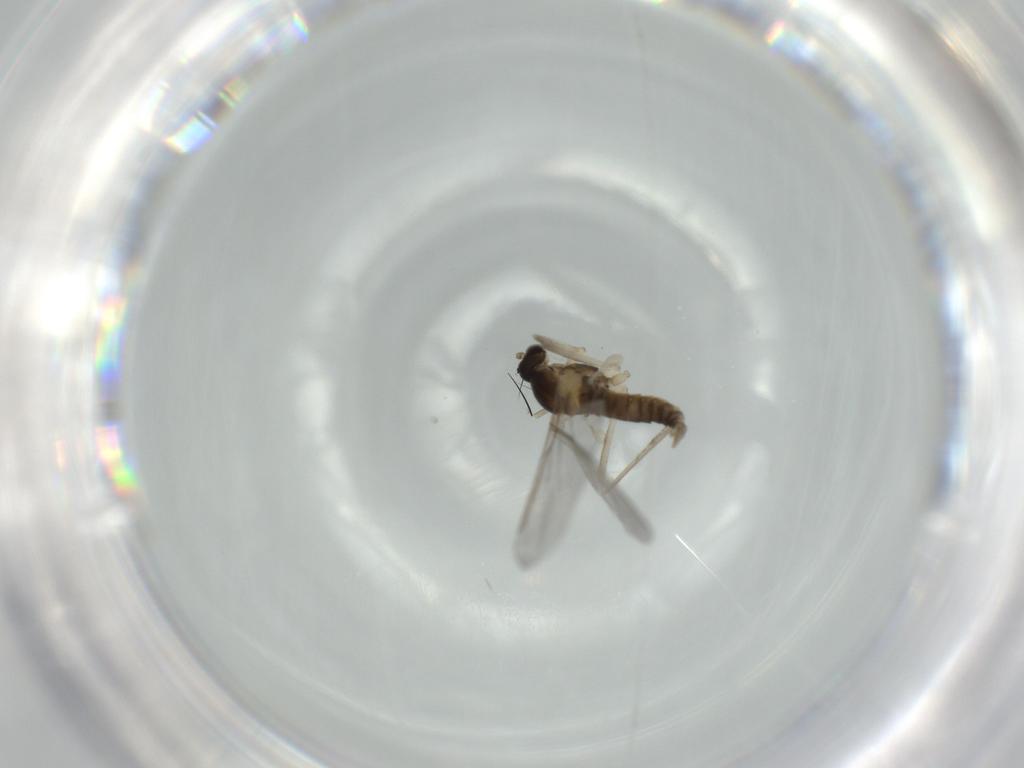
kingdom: Animalia
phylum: Arthropoda
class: Insecta
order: Diptera
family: Cecidomyiidae
